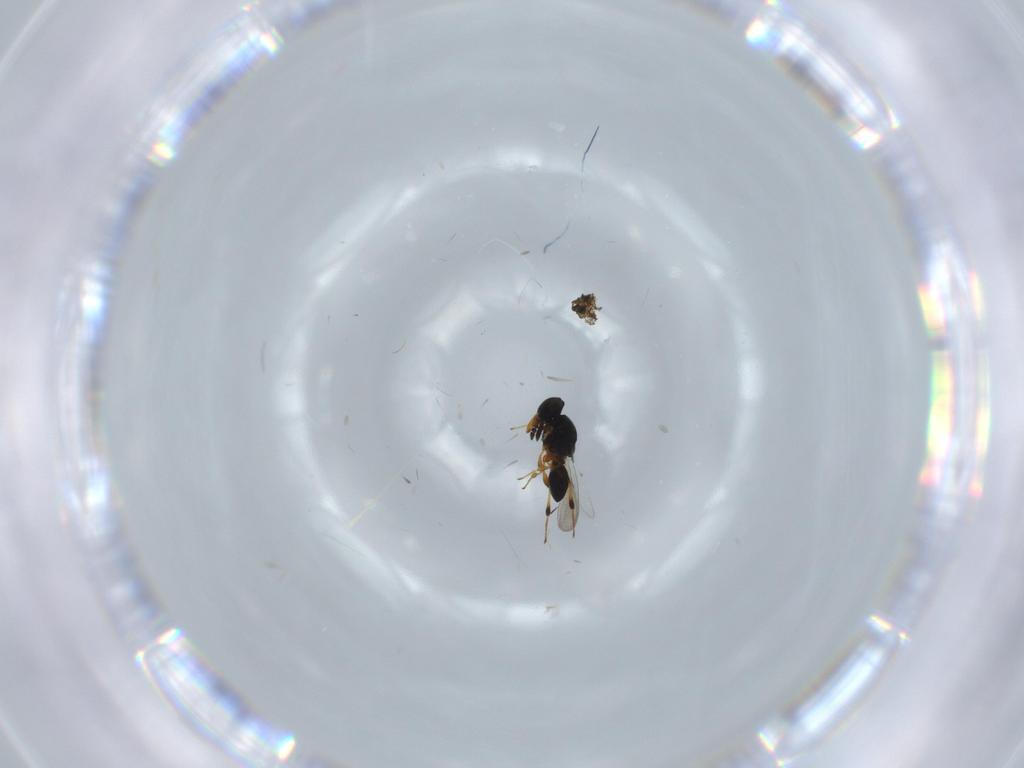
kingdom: Animalia
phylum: Arthropoda
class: Insecta
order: Hymenoptera
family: Platygastridae
